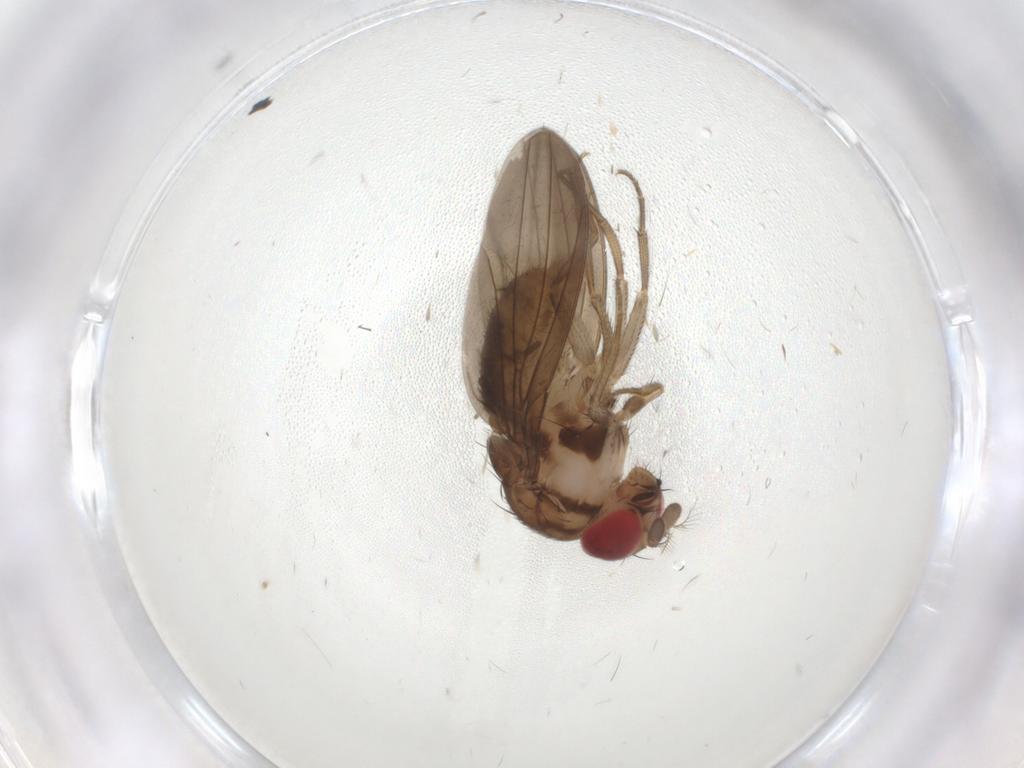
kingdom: Animalia
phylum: Arthropoda
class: Insecta
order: Diptera
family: Drosophilidae
